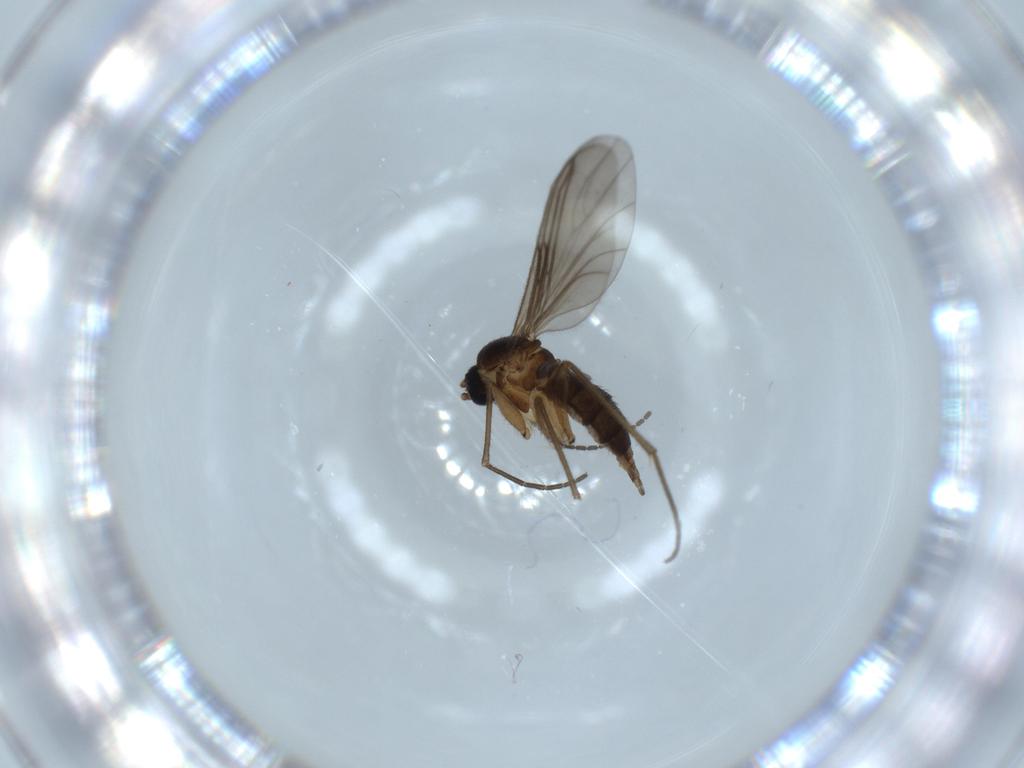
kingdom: Animalia
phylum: Arthropoda
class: Insecta
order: Diptera
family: Sciaridae
